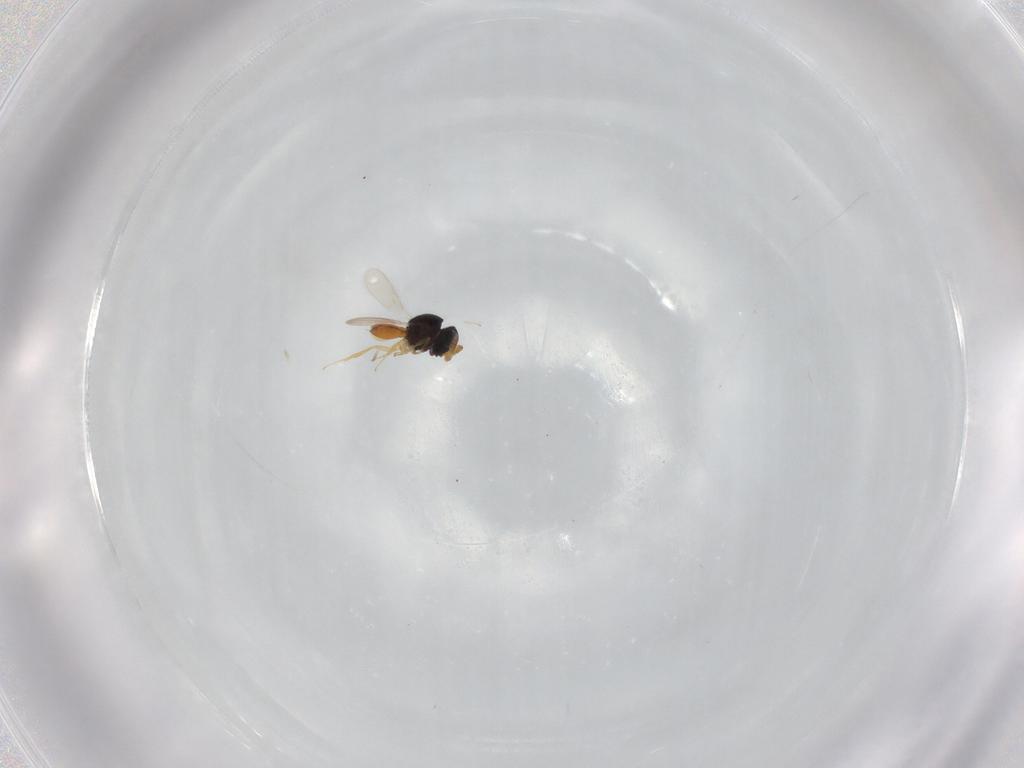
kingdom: Animalia
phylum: Arthropoda
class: Insecta
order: Hymenoptera
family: Scelionidae
